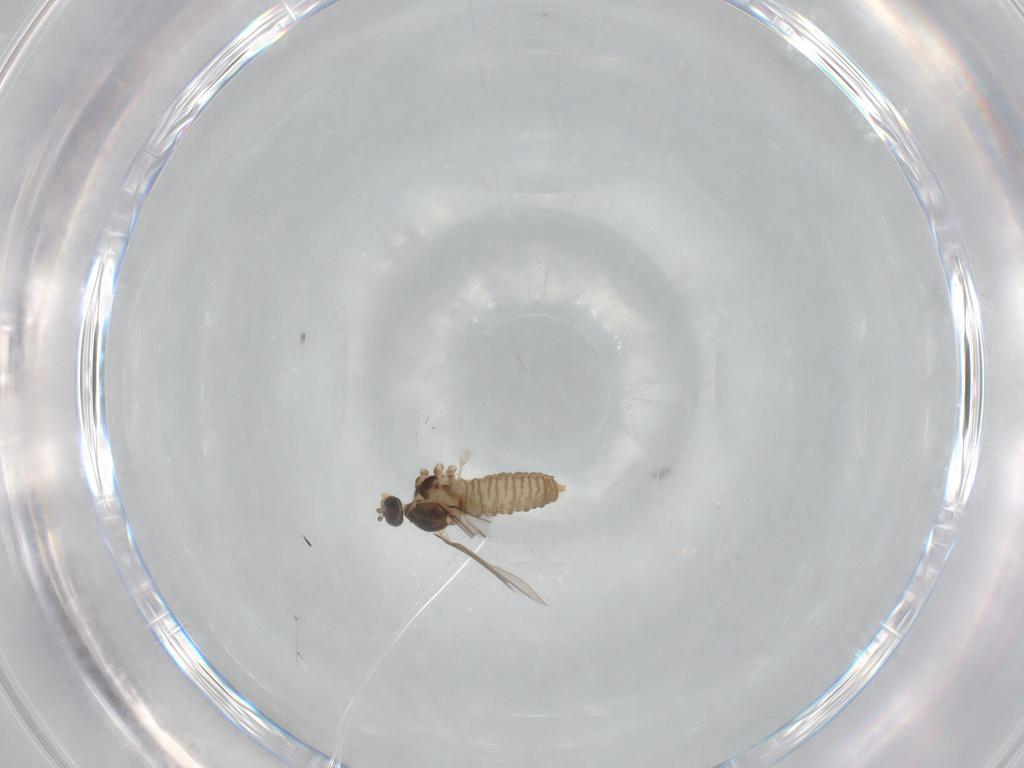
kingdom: Animalia
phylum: Arthropoda
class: Insecta
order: Diptera
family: Cecidomyiidae
